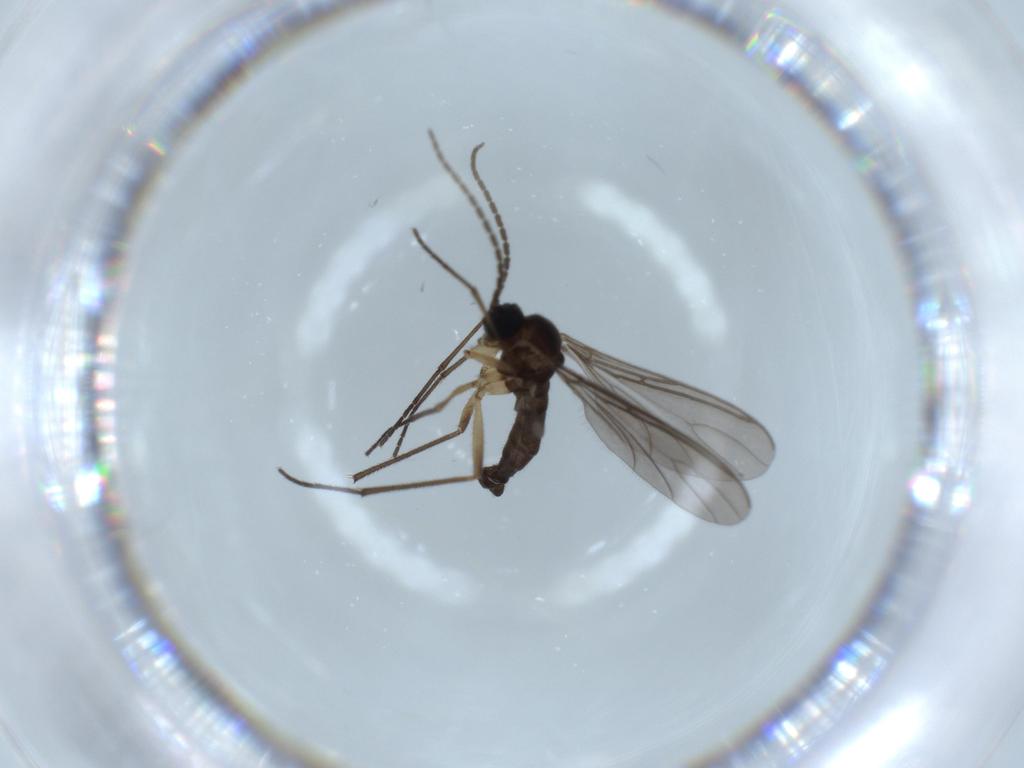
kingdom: Animalia
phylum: Arthropoda
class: Insecta
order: Diptera
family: Sciaridae
